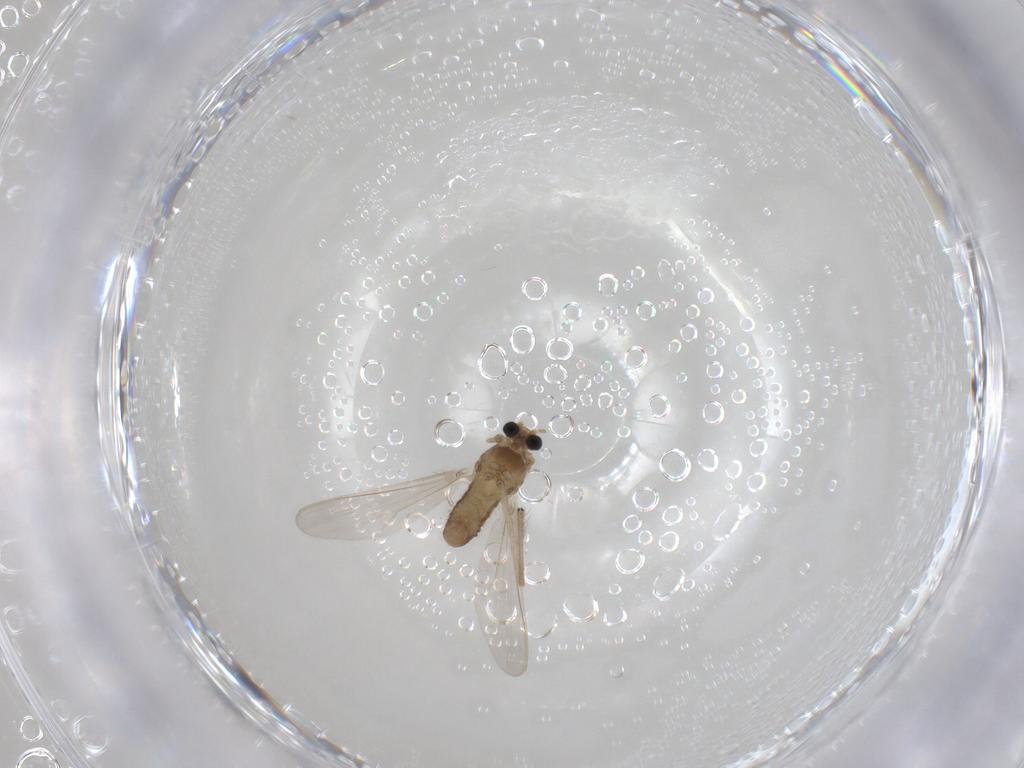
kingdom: Animalia
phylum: Arthropoda
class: Insecta
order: Diptera
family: Chironomidae
